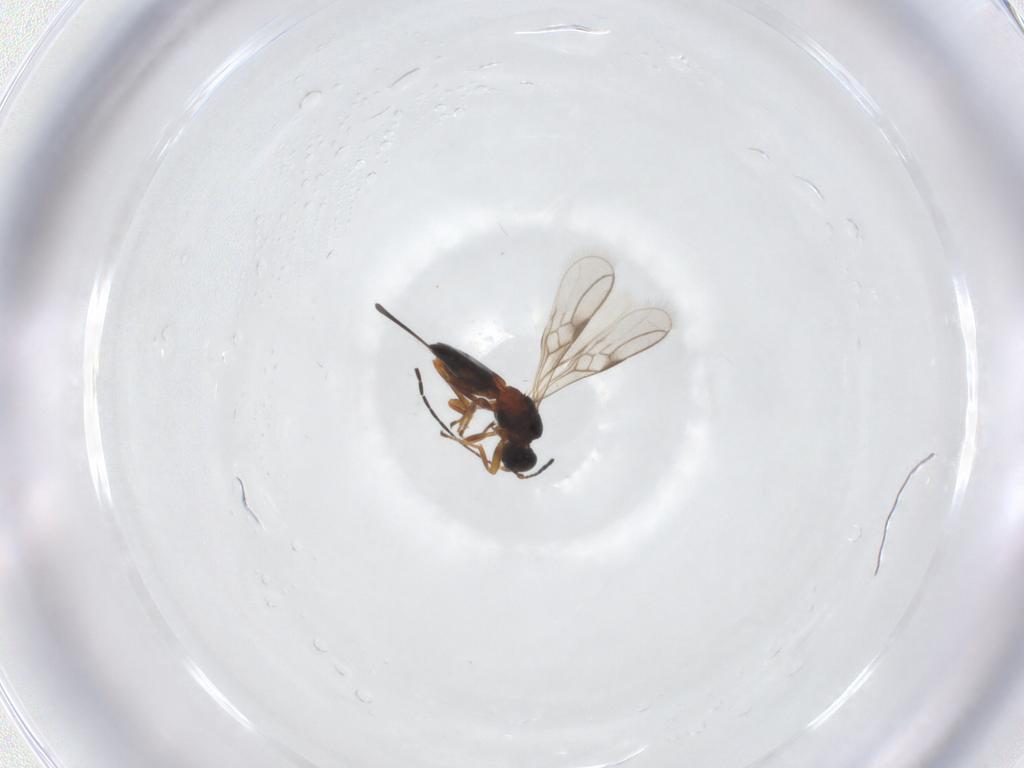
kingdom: Animalia
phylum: Arthropoda
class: Insecta
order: Hymenoptera
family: Braconidae
